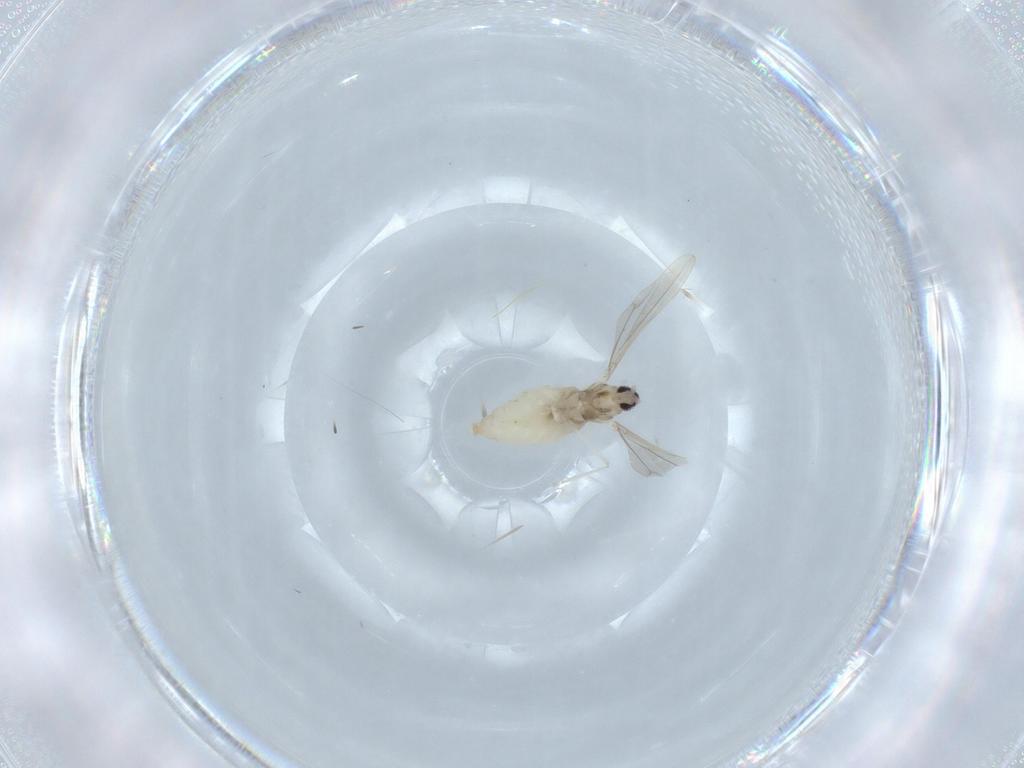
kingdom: Animalia
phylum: Arthropoda
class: Insecta
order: Diptera
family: Cecidomyiidae
